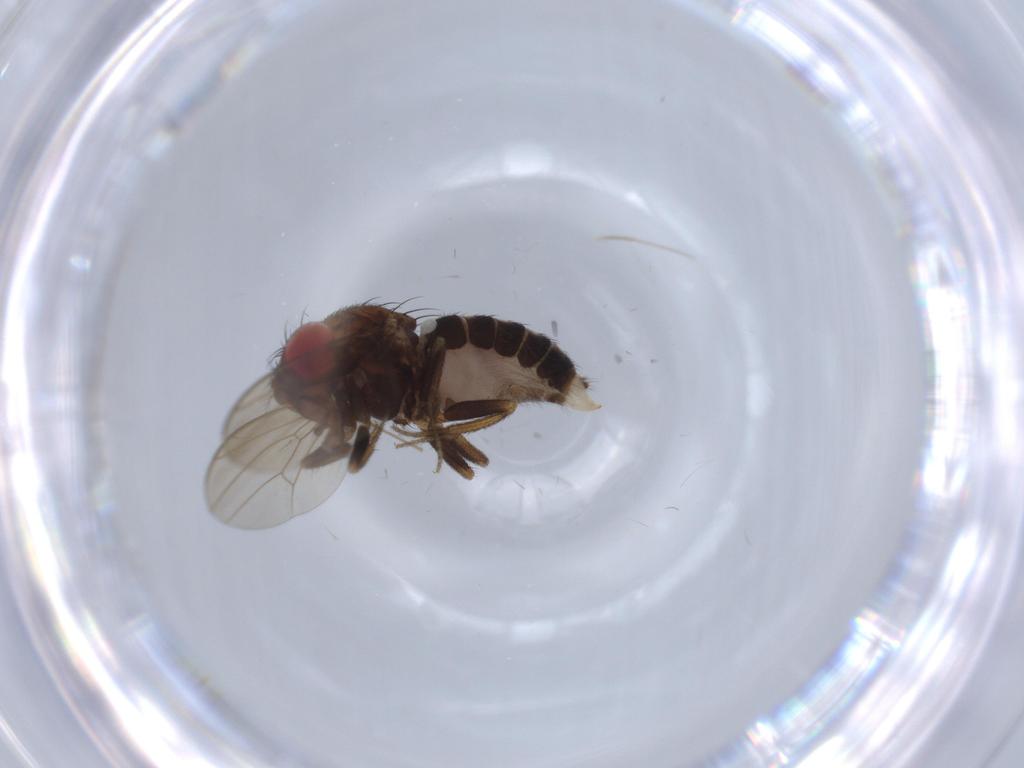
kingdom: Animalia
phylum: Arthropoda
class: Insecta
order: Diptera
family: Drosophilidae
